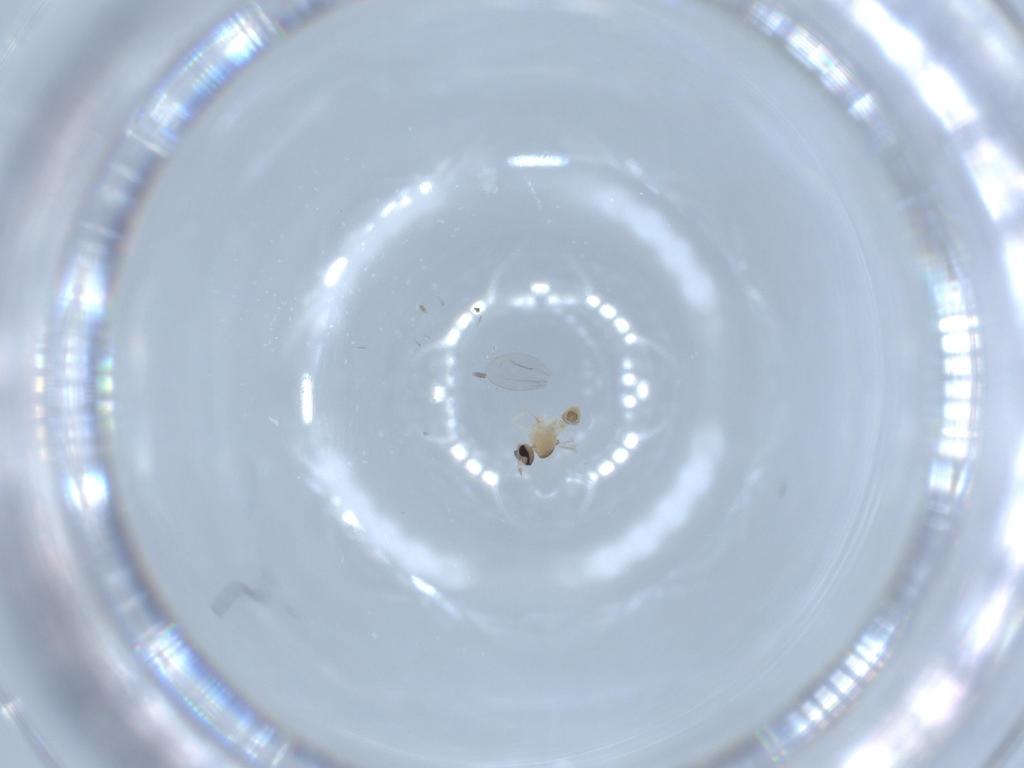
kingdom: Animalia
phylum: Arthropoda
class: Insecta
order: Diptera
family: Cecidomyiidae
